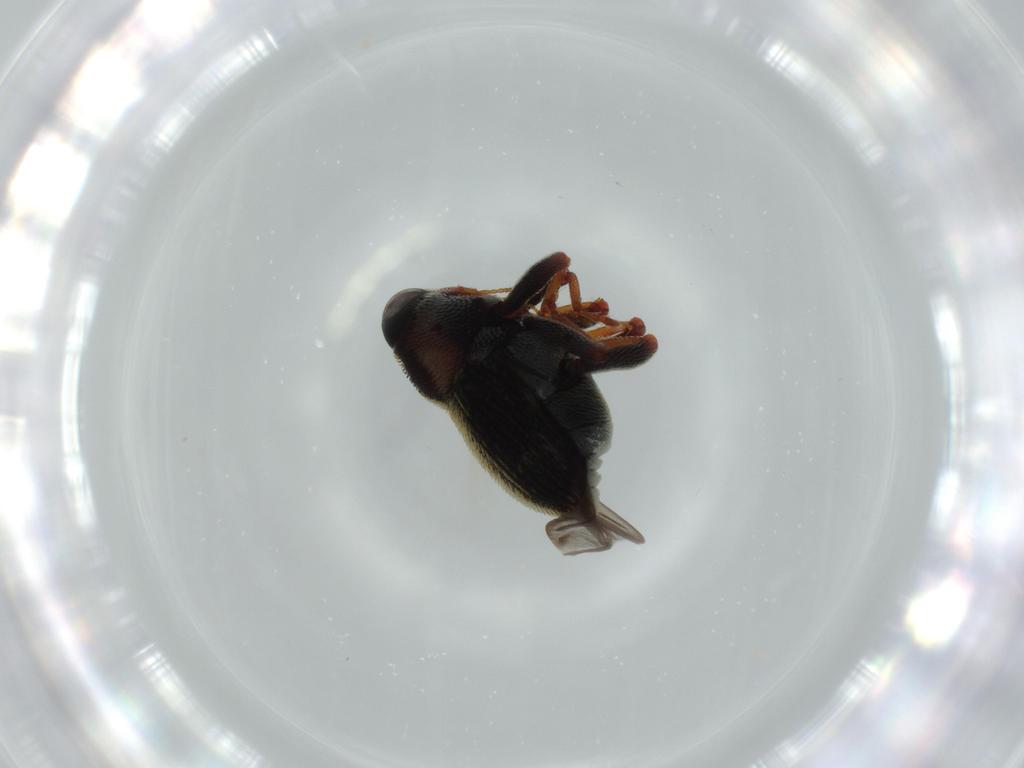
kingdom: Animalia
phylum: Arthropoda
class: Insecta
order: Coleoptera
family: Curculionidae
